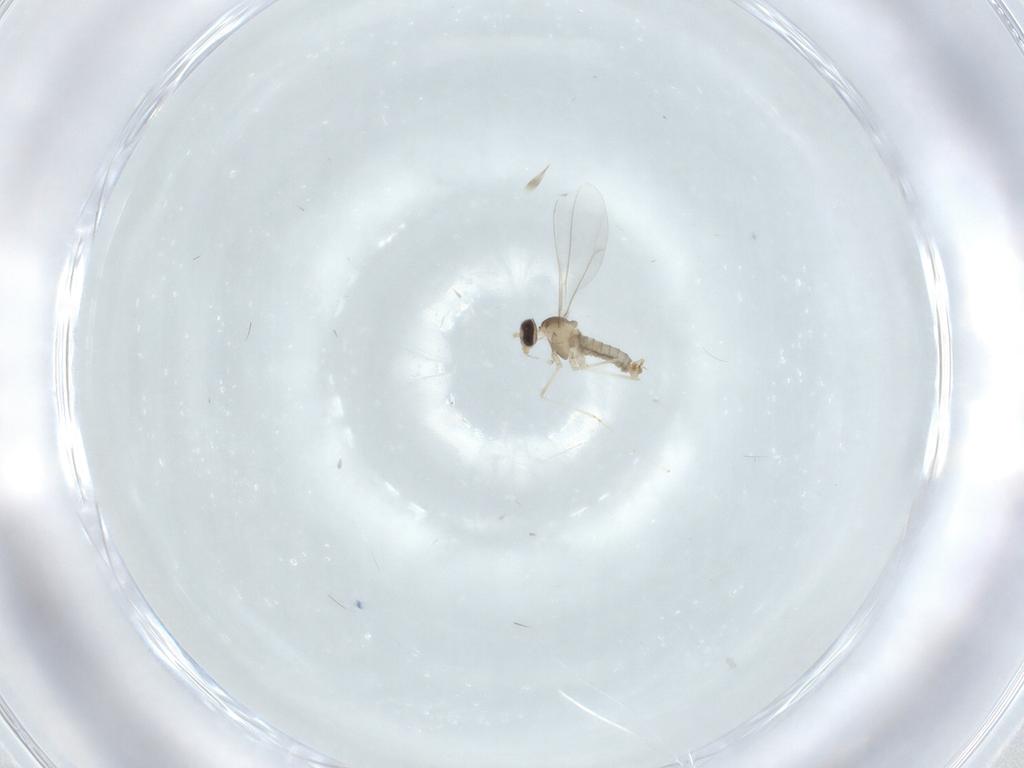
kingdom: Animalia
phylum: Arthropoda
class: Insecta
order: Diptera
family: Cecidomyiidae
